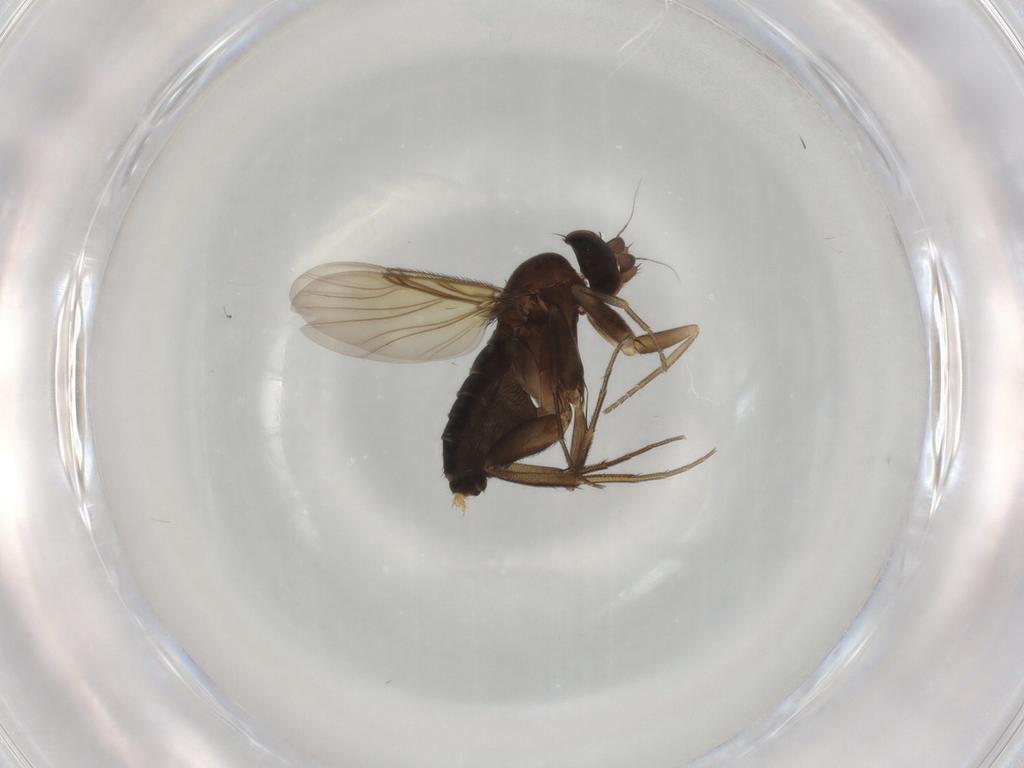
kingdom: Animalia
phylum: Arthropoda
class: Insecta
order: Diptera
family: Phoridae
